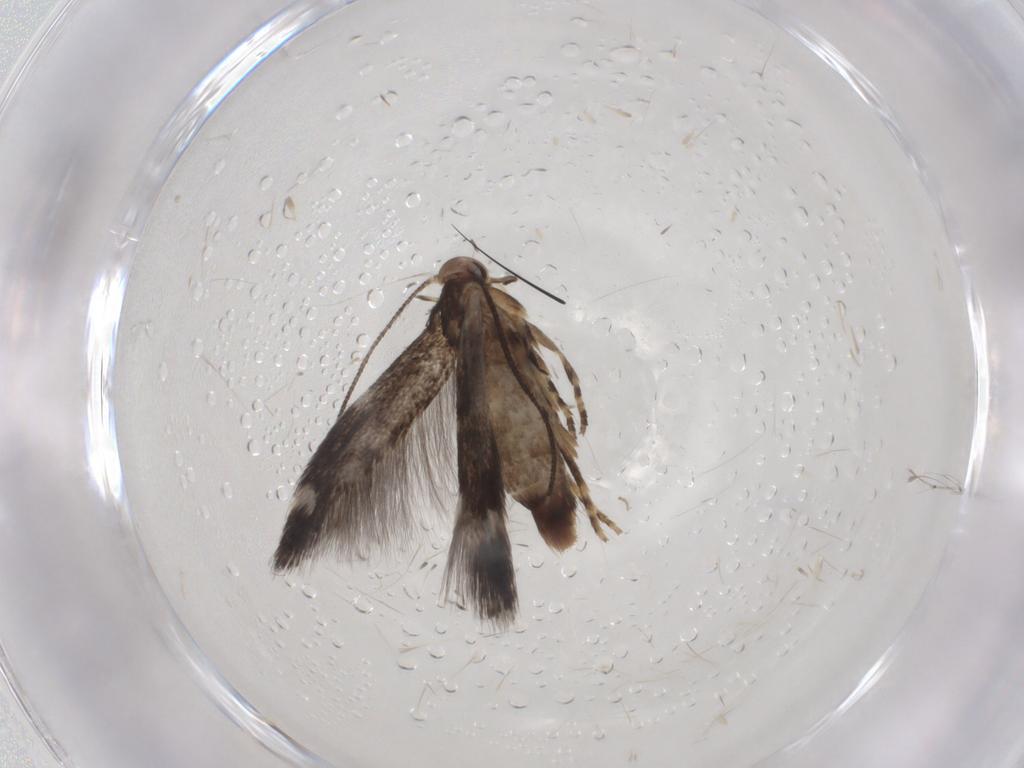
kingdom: Animalia
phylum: Arthropoda
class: Insecta
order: Lepidoptera
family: Elachistidae
